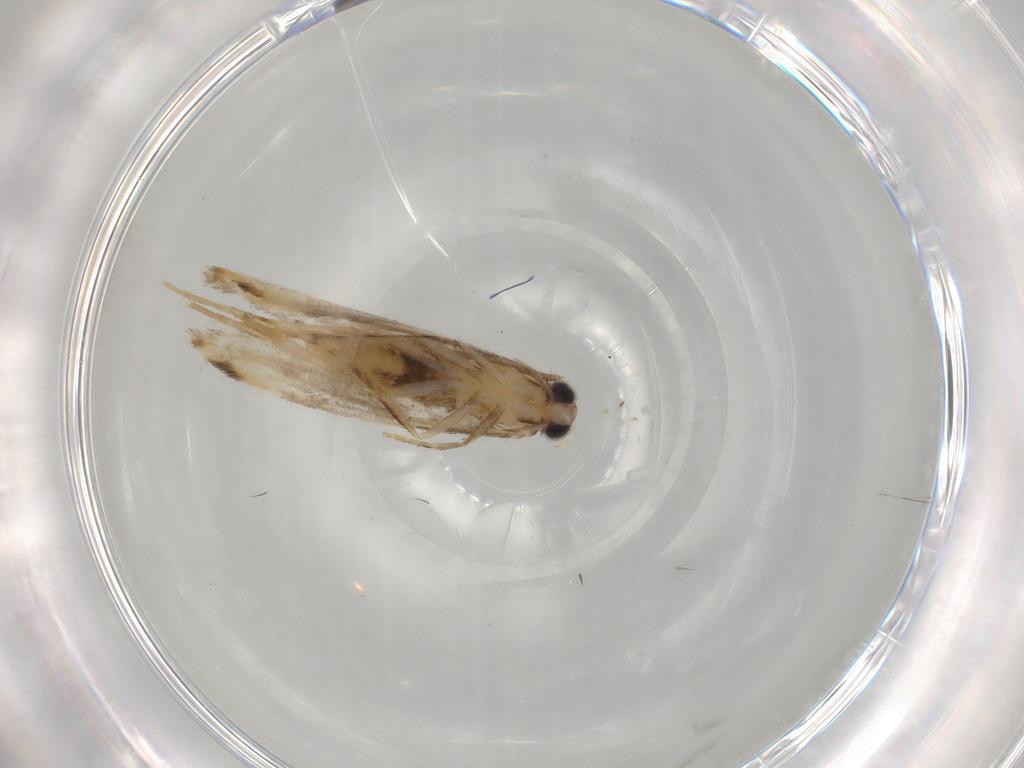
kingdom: Animalia
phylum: Arthropoda
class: Insecta
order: Lepidoptera
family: Bucculatricidae
